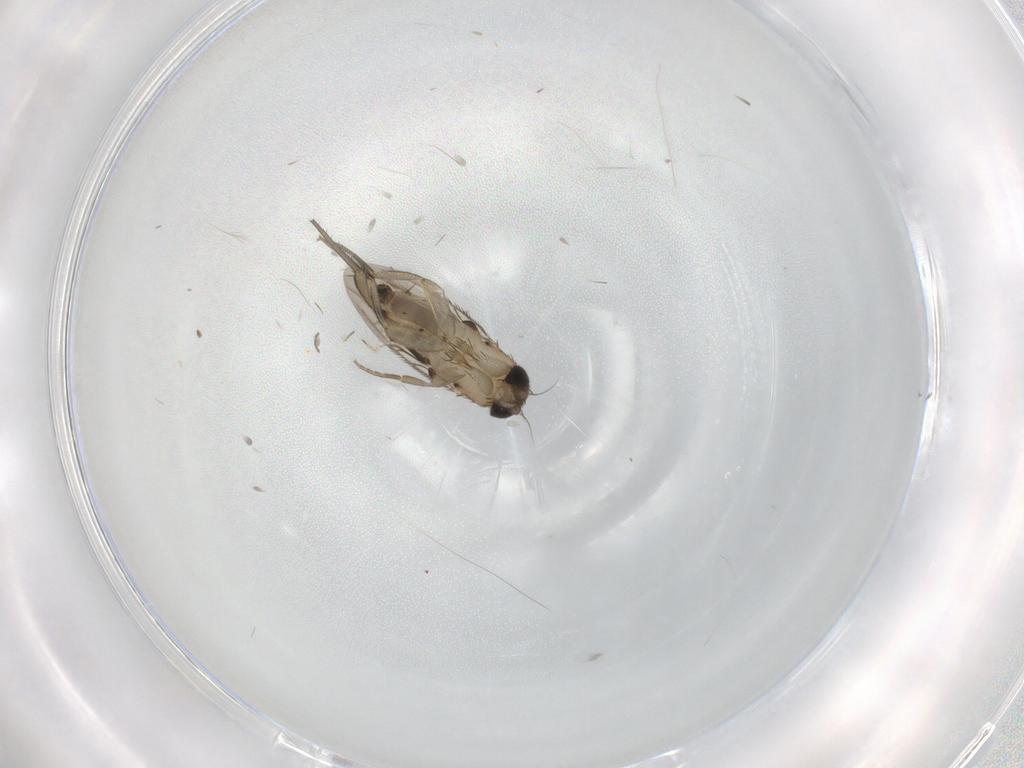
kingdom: Animalia
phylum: Arthropoda
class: Insecta
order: Diptera
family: Phoridae
